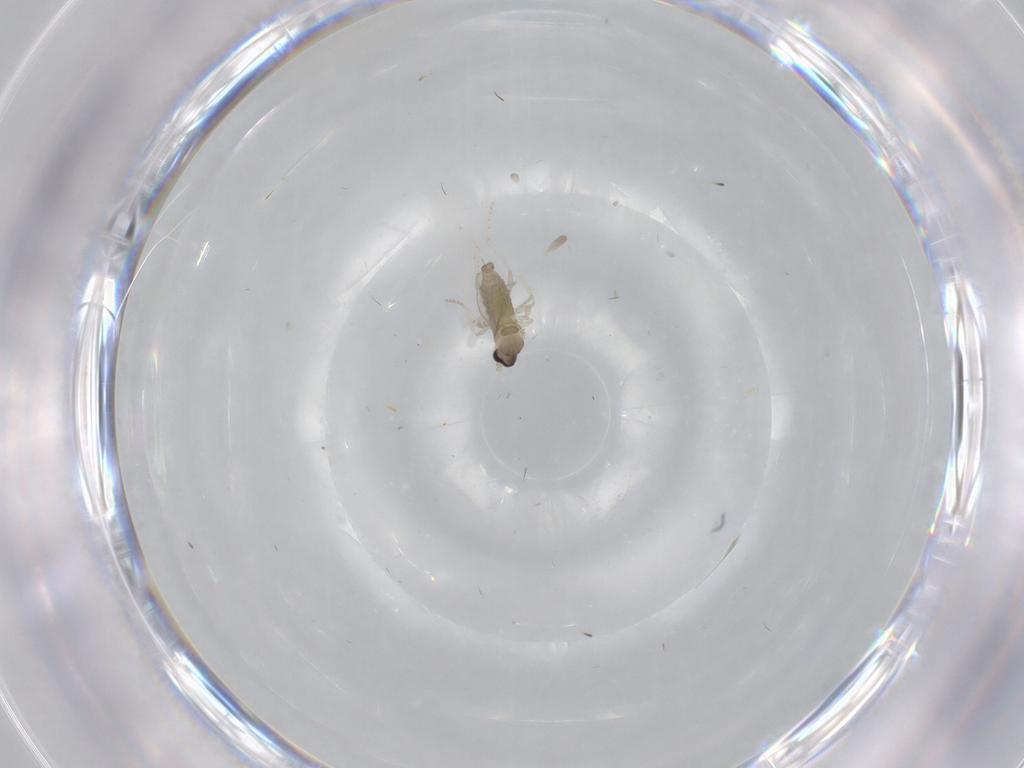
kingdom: Animalia
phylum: Arthropoda
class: Insecta
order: Diptera
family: Cecidomyiidae
